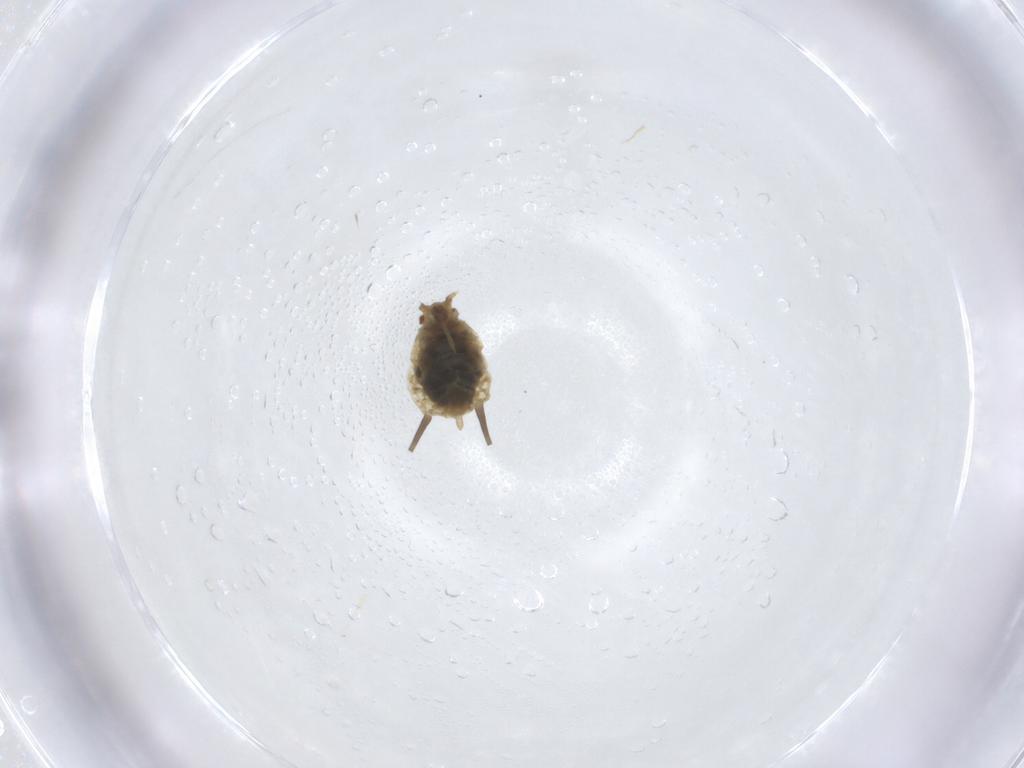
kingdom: Animalia
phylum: Arthropoda
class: Insecta
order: Hemiptera
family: Aphididae
